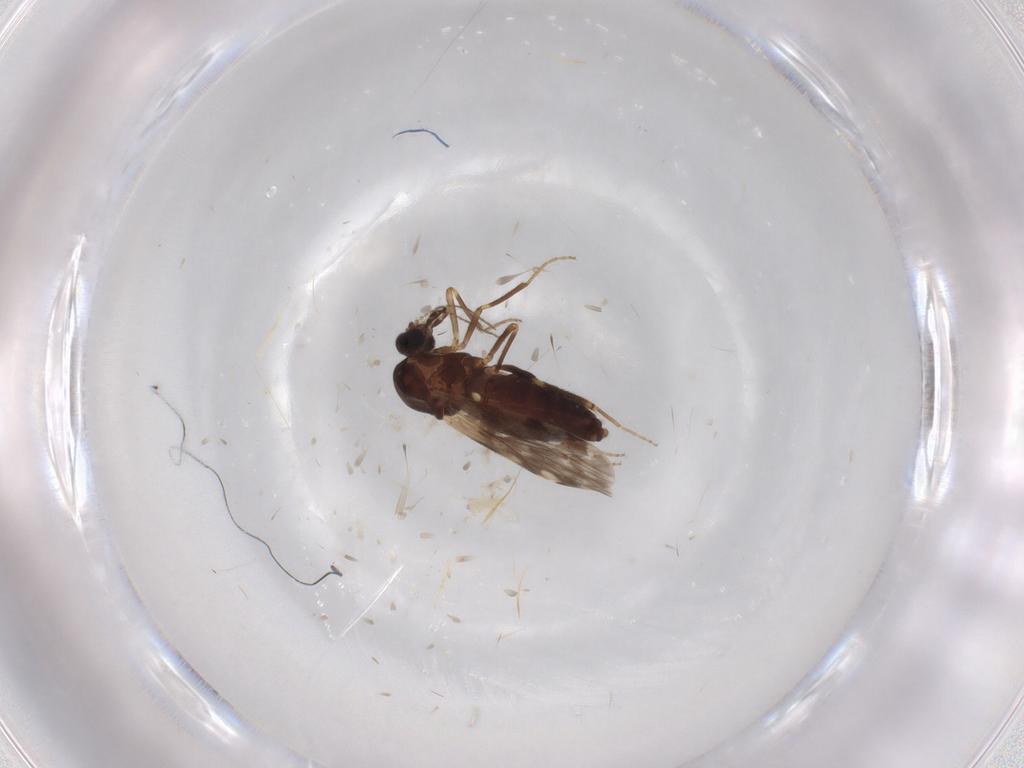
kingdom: Animalia
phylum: Arthropoda
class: Insecta
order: Diptera
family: Ceratopogonidae
